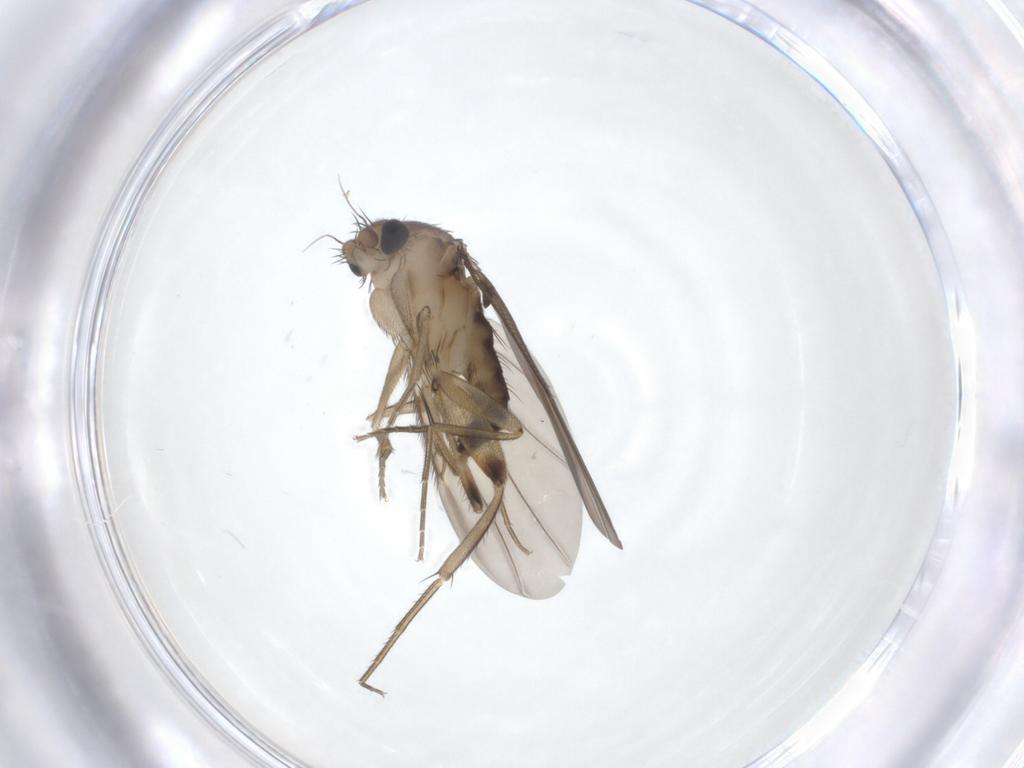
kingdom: Animalia
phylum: Arthropoda
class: Insecta
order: Diptera
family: Phoridae
